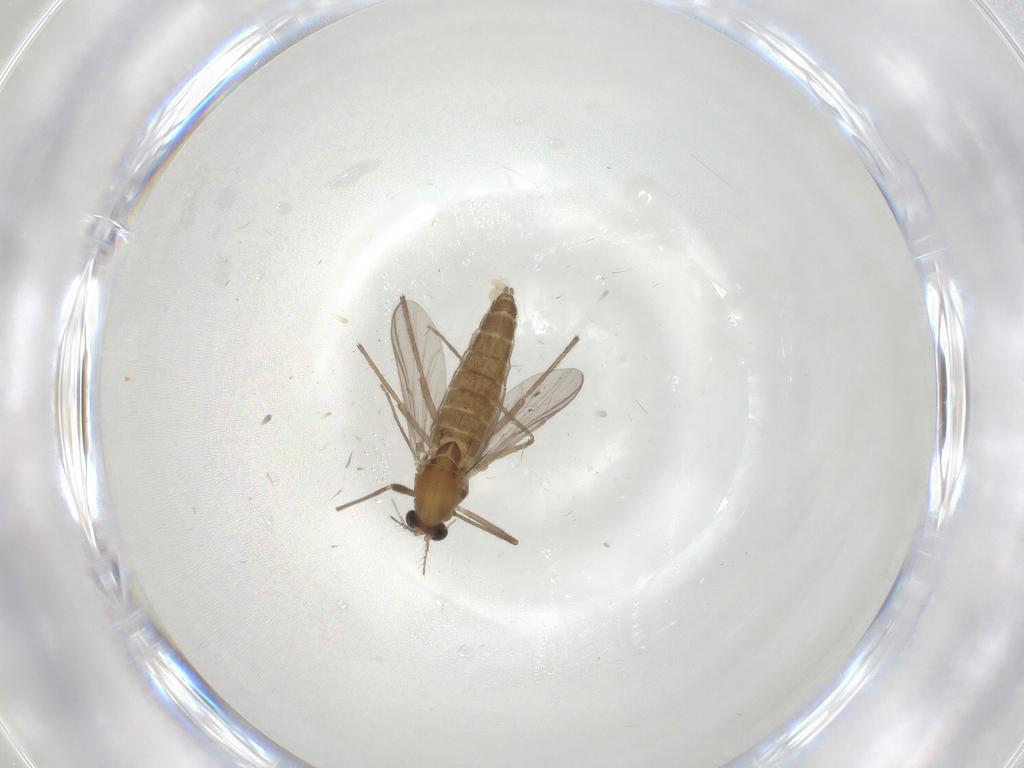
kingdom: Animalia
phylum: Arthropoda
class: Insecta
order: Diptera
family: Chironomidae
